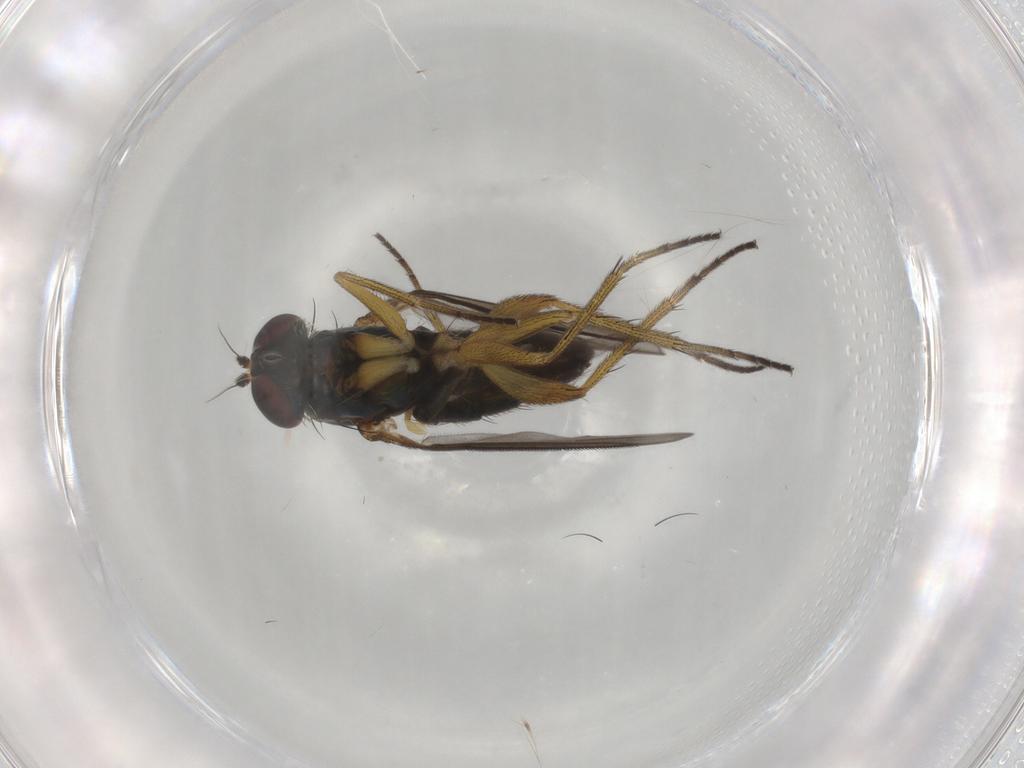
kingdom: Animalia
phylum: Arthropoda
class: Insecta
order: Diptera
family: Dolichopodidae
